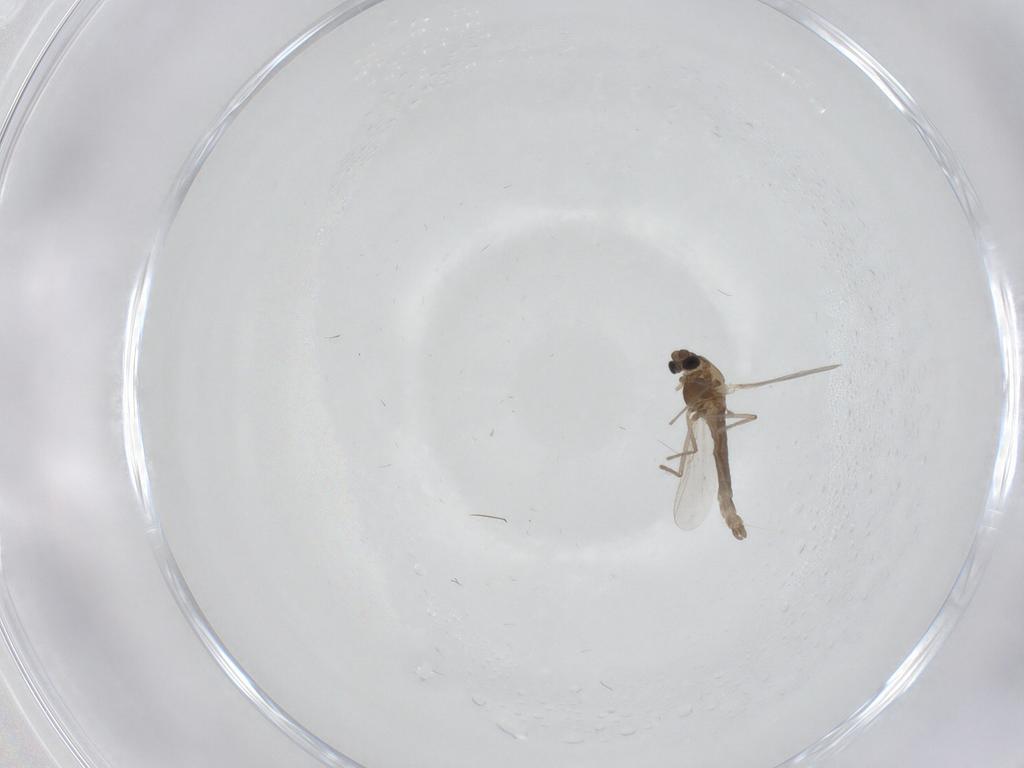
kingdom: Animalia
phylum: Arthropoda
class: Insecta
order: Diptera
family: Chironomidae
